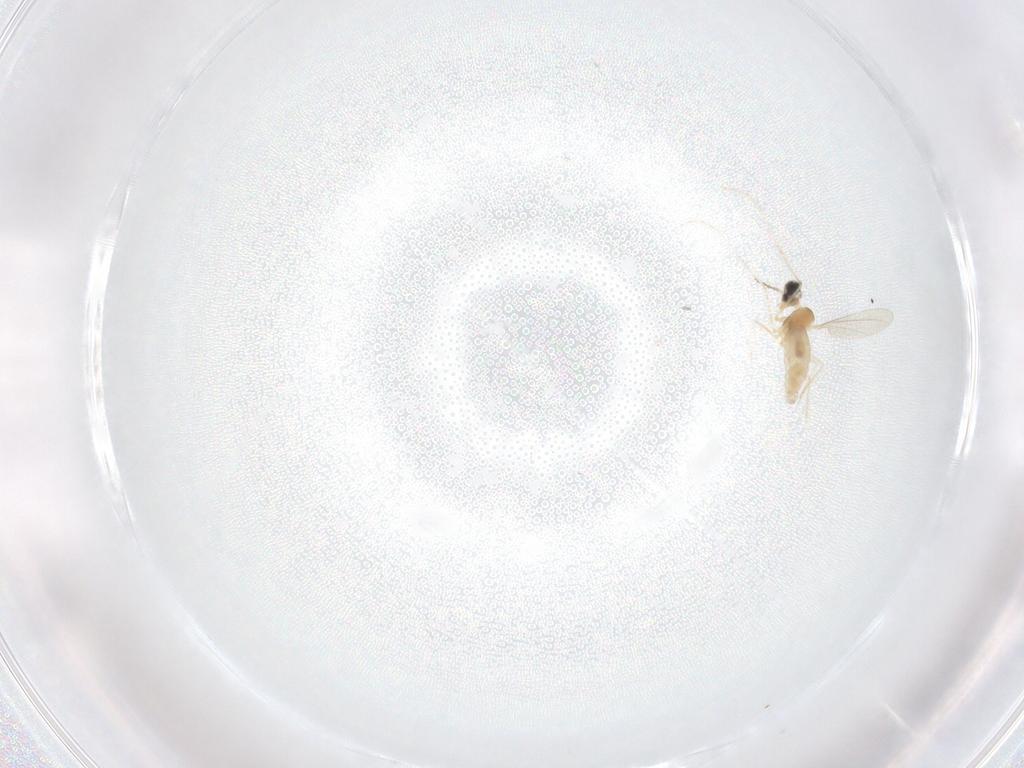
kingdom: Animalia
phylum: Arthropoda
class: Insecta
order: Diptera
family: Cecidomyiidae
